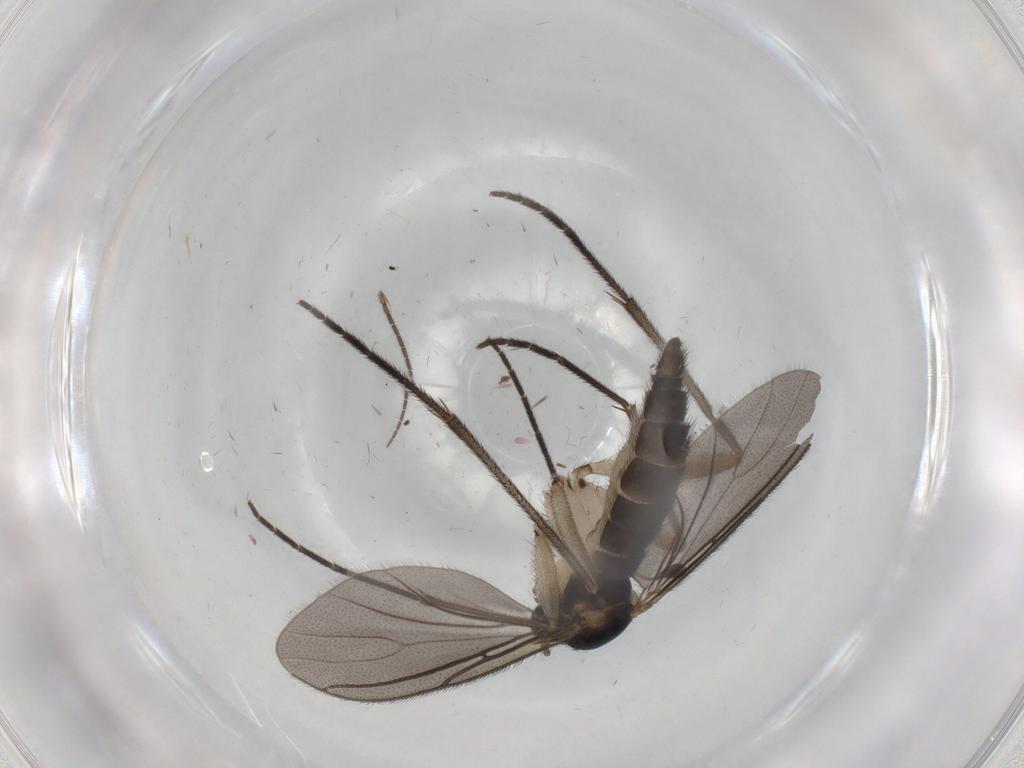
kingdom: Animalia
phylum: Arthropoda
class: Insecta
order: Diptera
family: Sciaridae
